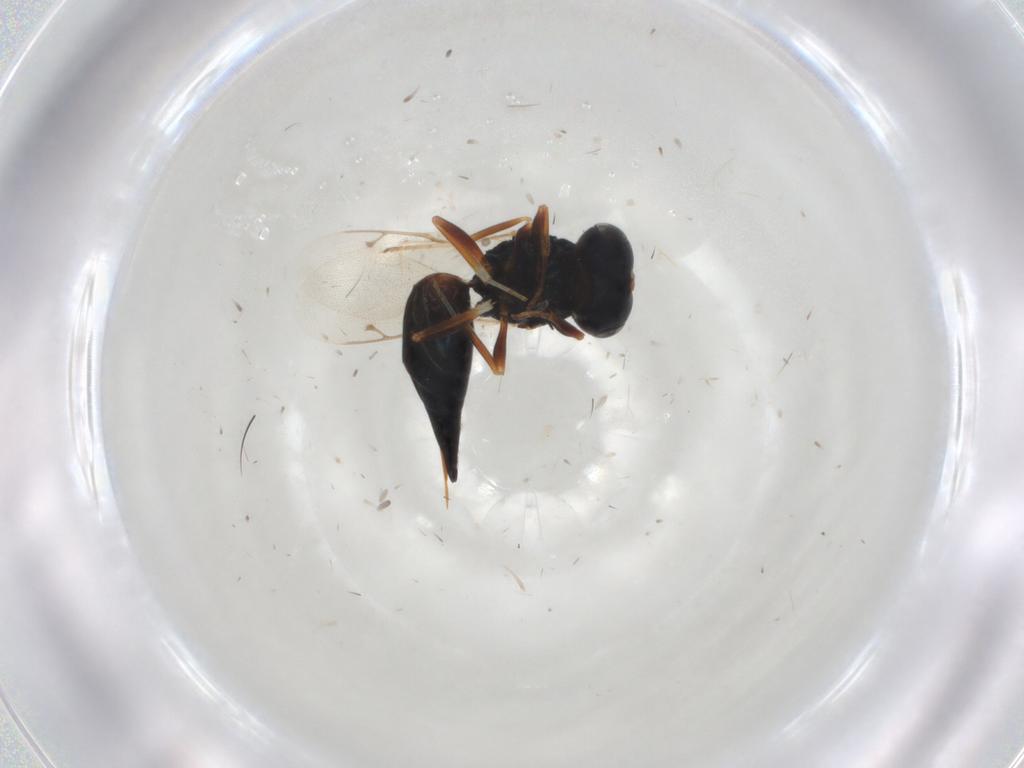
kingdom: Animalia
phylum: Arthropoda
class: Insecta
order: Hymenoptera
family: Pteromalidae
